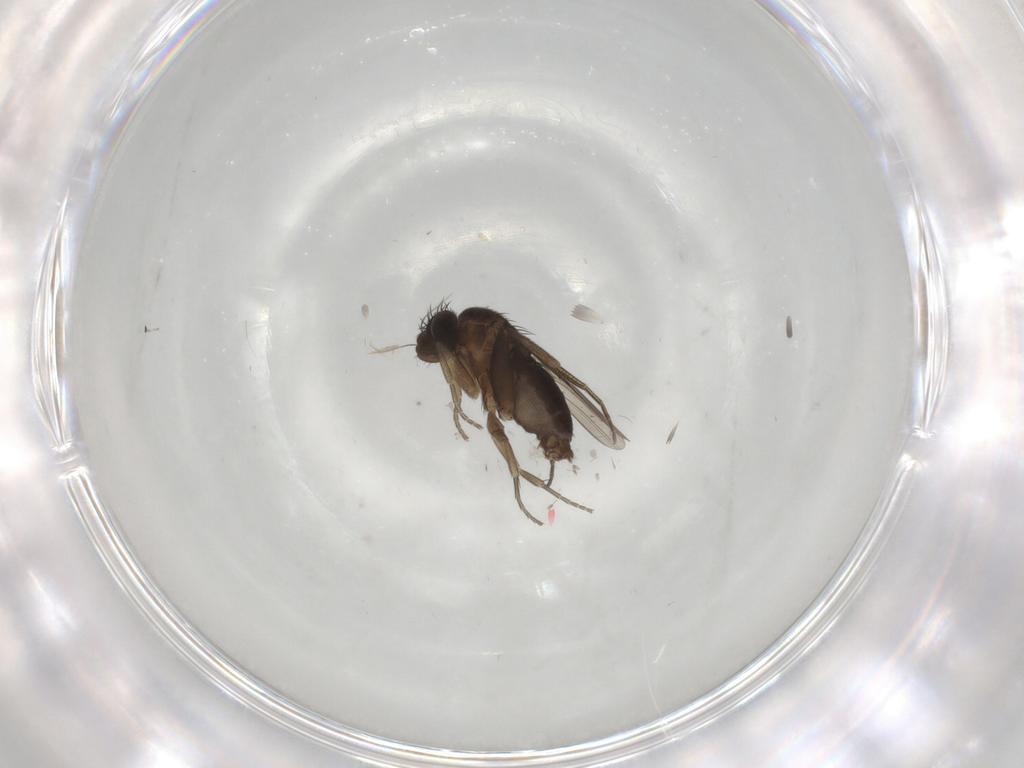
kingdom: Animalia
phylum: Arthropoda
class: Insecta
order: Diptera
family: Phoridae
